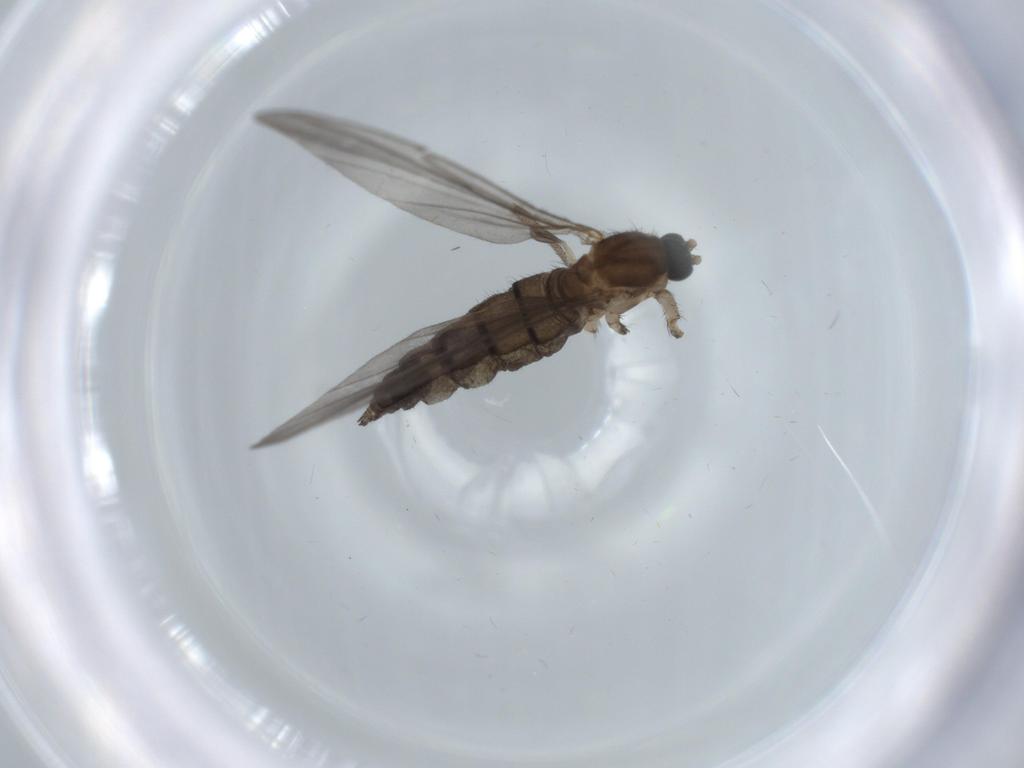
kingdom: Animalia
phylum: Arthropoda
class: Insecta
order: Diptera
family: Sciaridae
